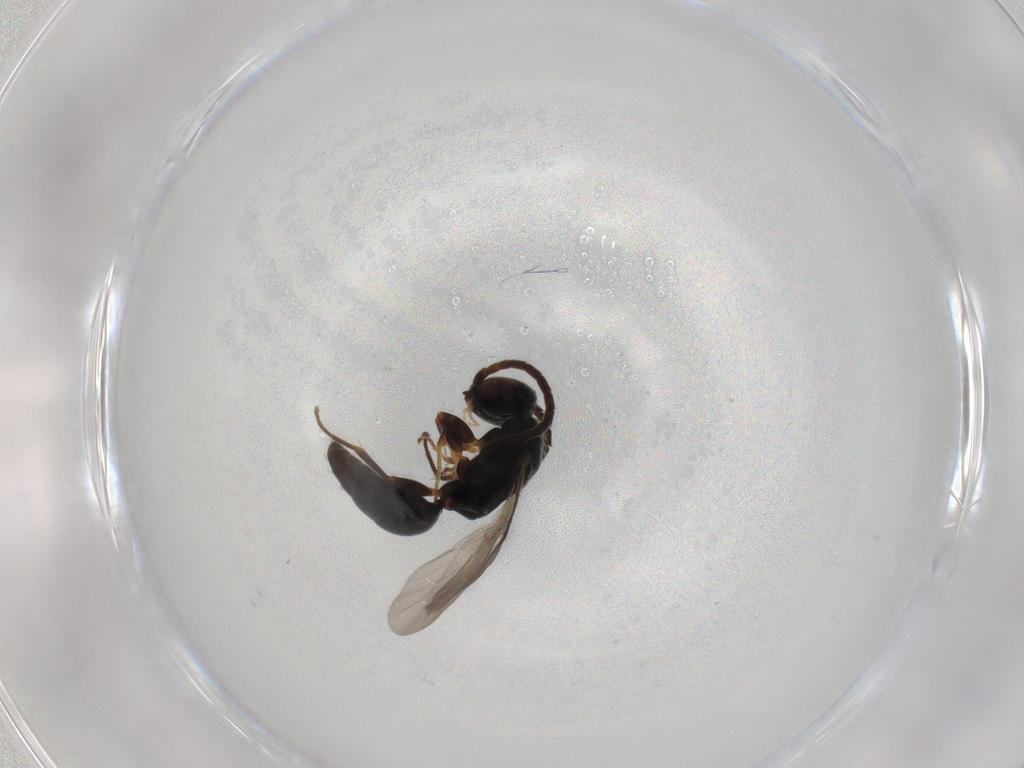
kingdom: Animalia
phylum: Arthropoda
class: Insecta
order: Hymenoptera
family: Bethylidae
